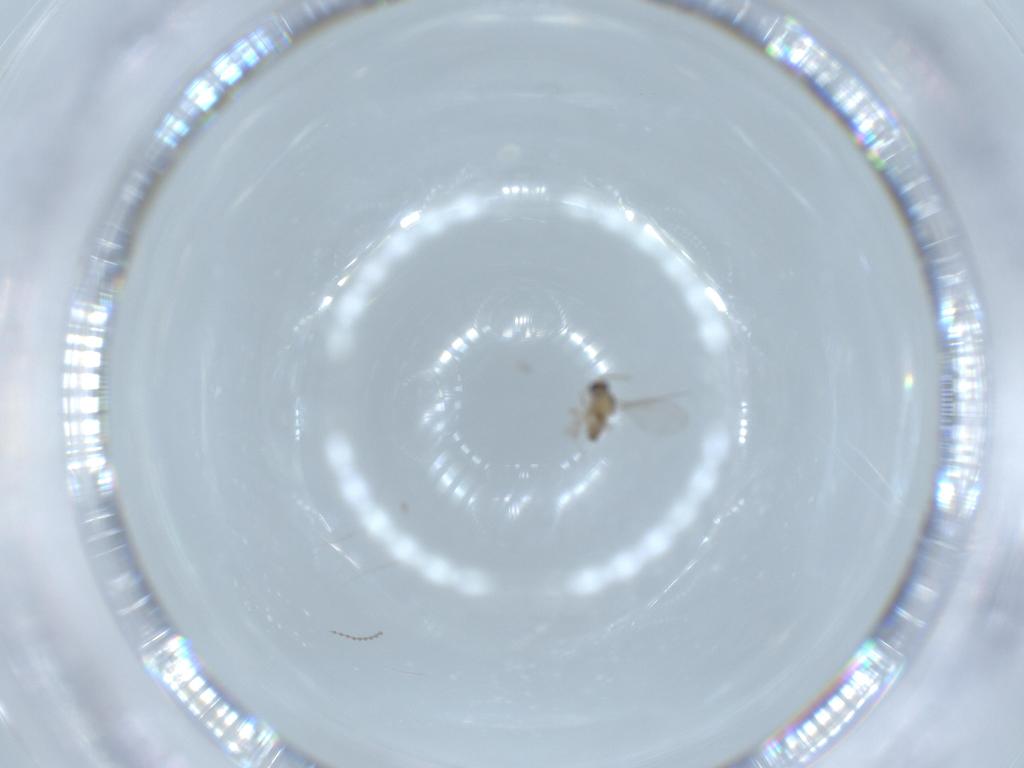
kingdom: Animalia
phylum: Arthropoda
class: Insecta
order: Diptera
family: Cecidomyiidae
